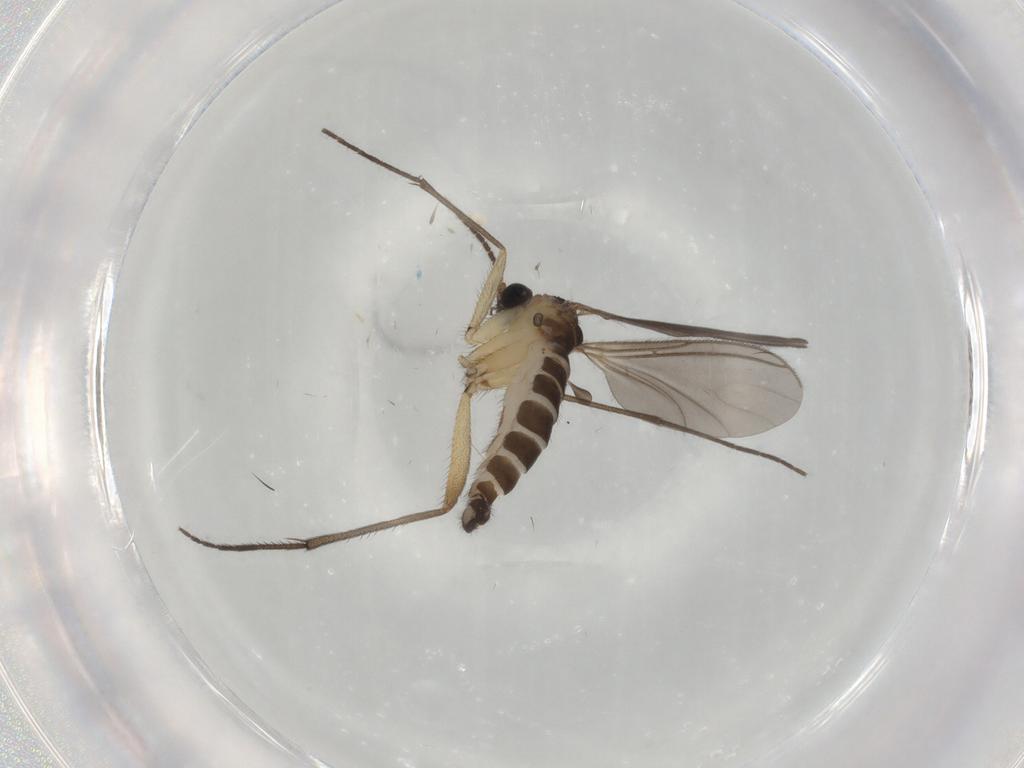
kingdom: Animalia
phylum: Arthropoda
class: Insecta
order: Diptera
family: Sciaridae
